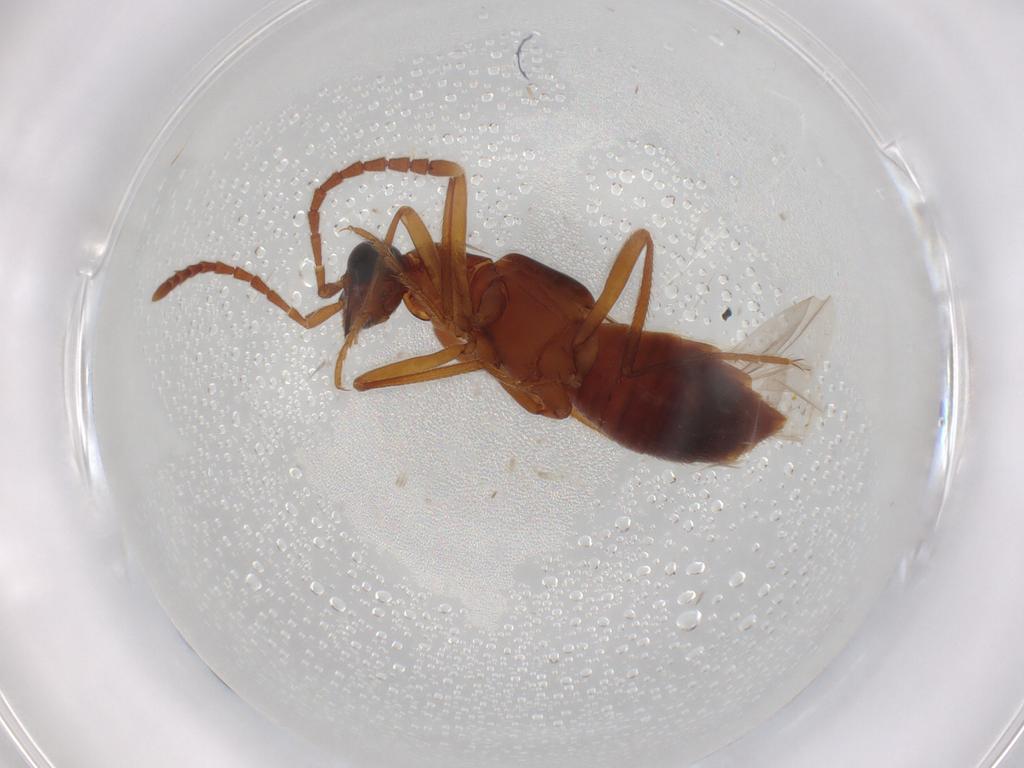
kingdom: Animalia
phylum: Arthropoda
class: Insecta
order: Coleoptera
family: Staphylinidae
